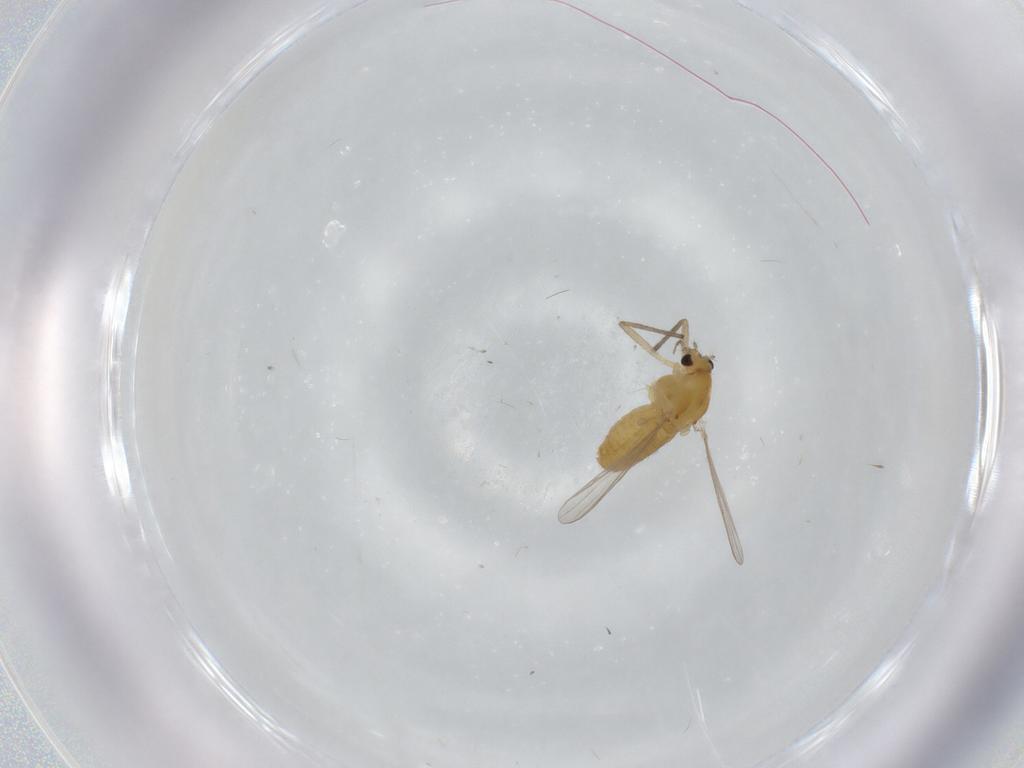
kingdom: Animalia
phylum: Arthropoda
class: Insecta
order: Diptera
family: Chironomidae
